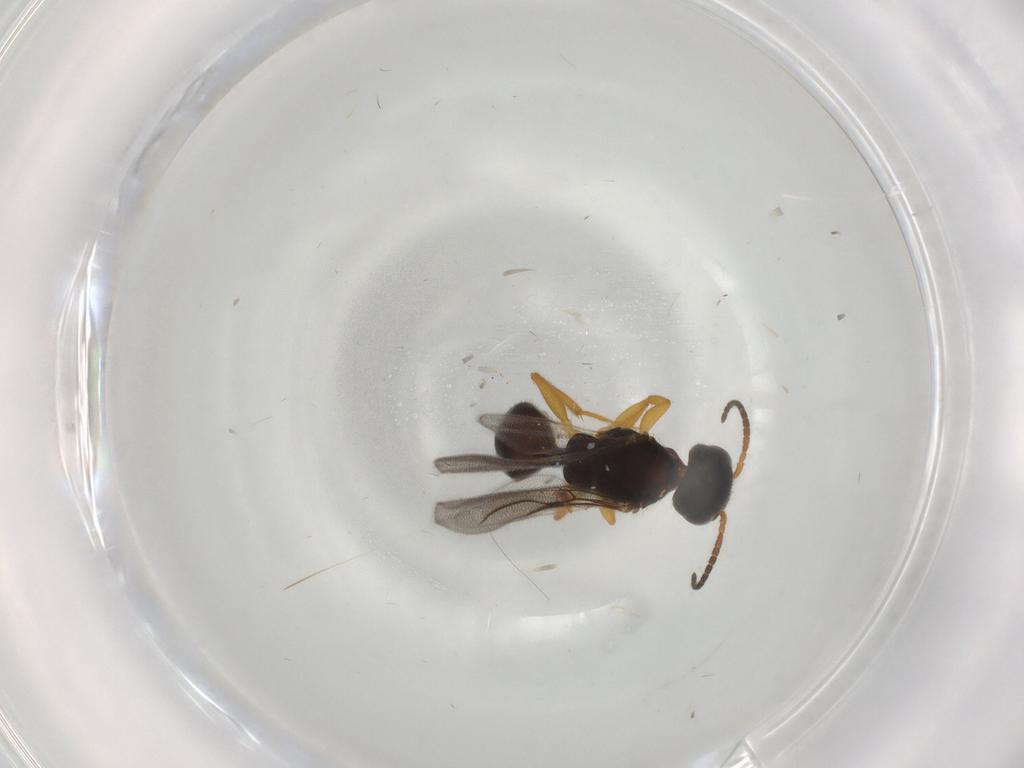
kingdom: Animalia
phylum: Arthropoda
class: Insecta
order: Hymenoptera
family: Bethylidae
